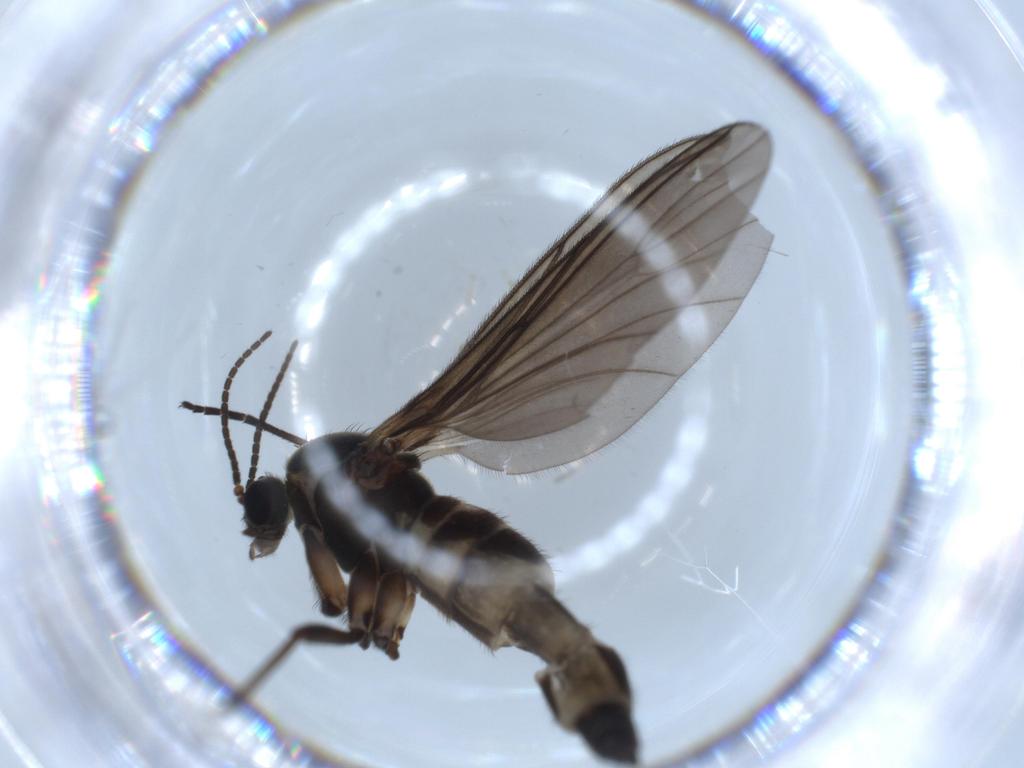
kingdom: Animalia
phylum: Arthropoda
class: Insecta
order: Diptera
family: Sciaridae
